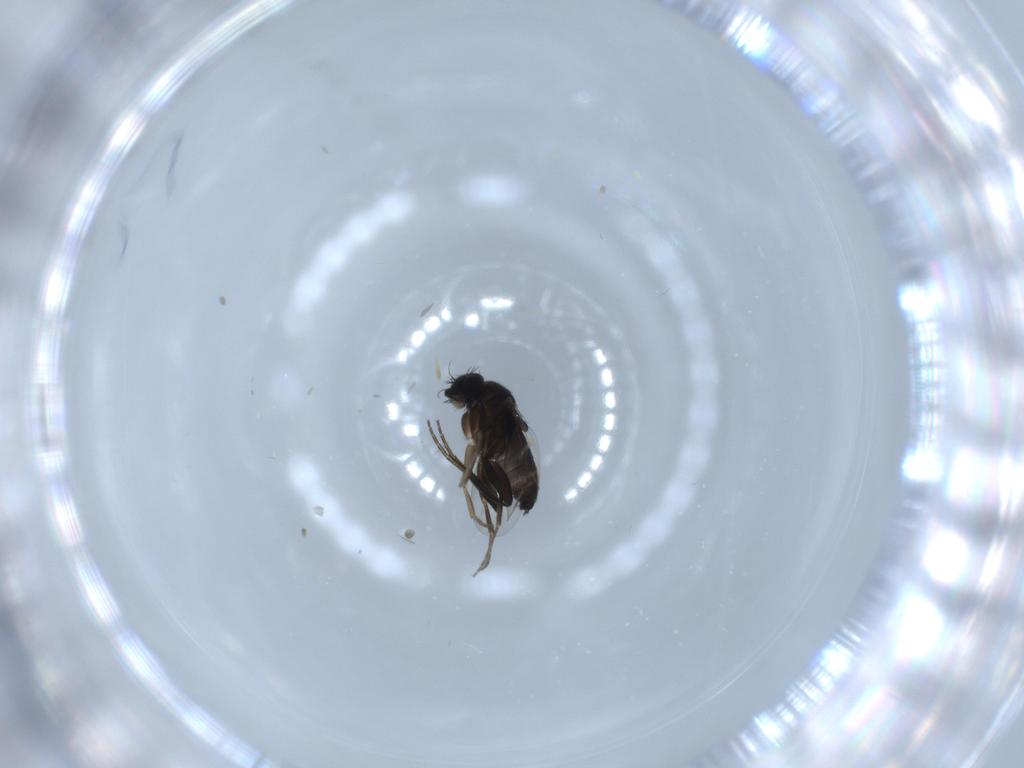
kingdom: Animalia
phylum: Arthropoda
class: Insecta
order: Diptera
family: Phoridae
